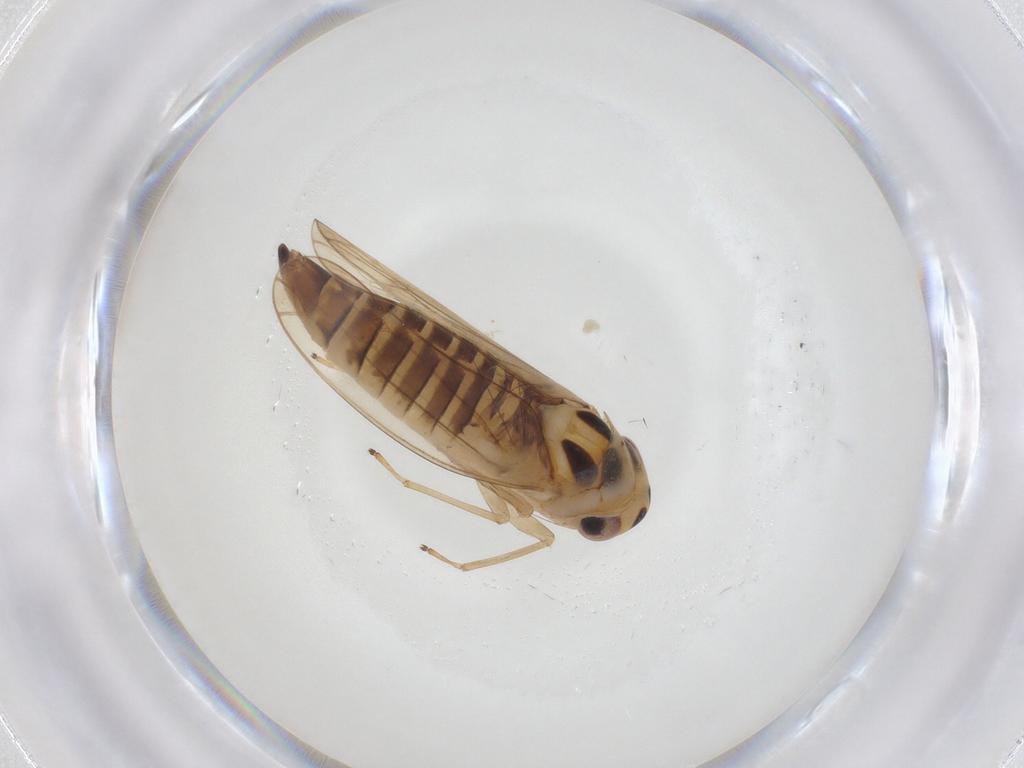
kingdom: Animalia
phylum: Arthropoda
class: Insecta
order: Hemiptera
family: Cicadellidae
